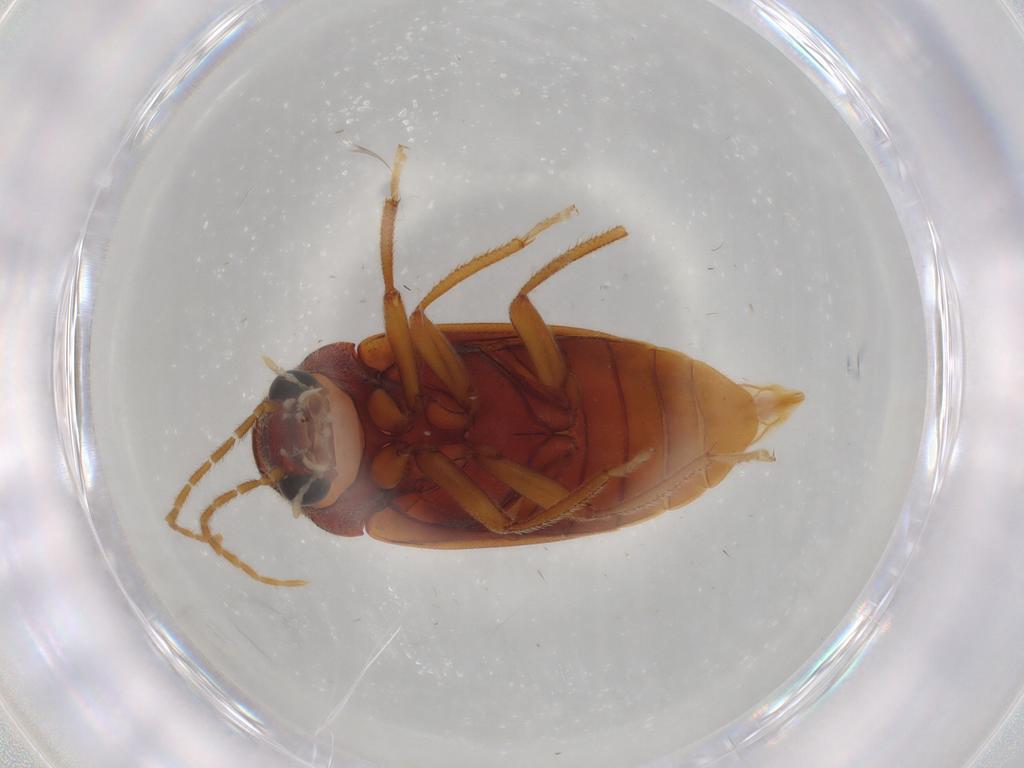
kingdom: Animalia
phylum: Arthropoda
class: Insecta
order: Coleoptera
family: Ptilodactylidae
